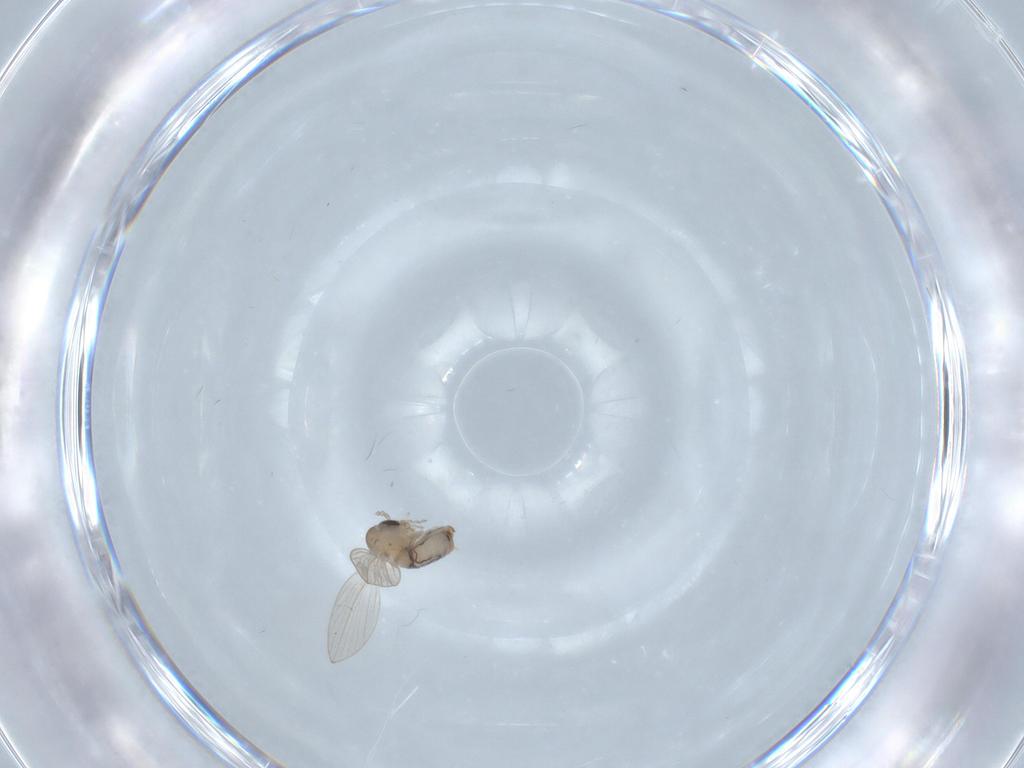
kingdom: Animalia
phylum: Arthropoda
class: Insecta
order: Diptera
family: Psychodidae
